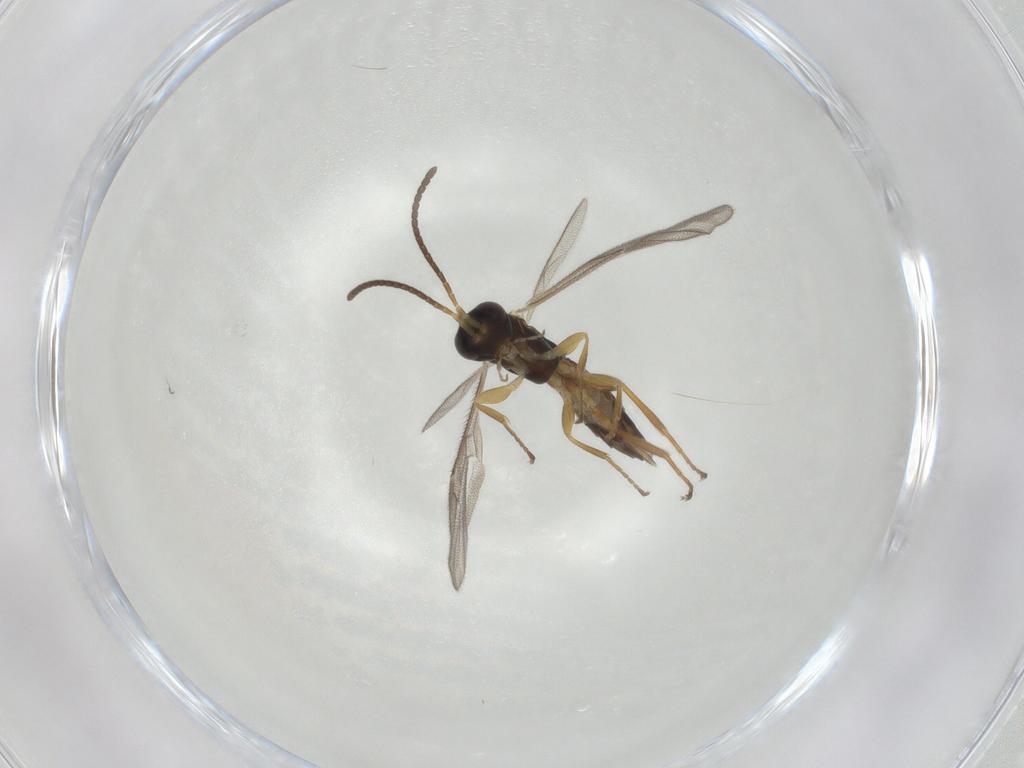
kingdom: Animalia
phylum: Arthropoda
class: Insecta
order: Hymenoptera
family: Ichneumonidae
